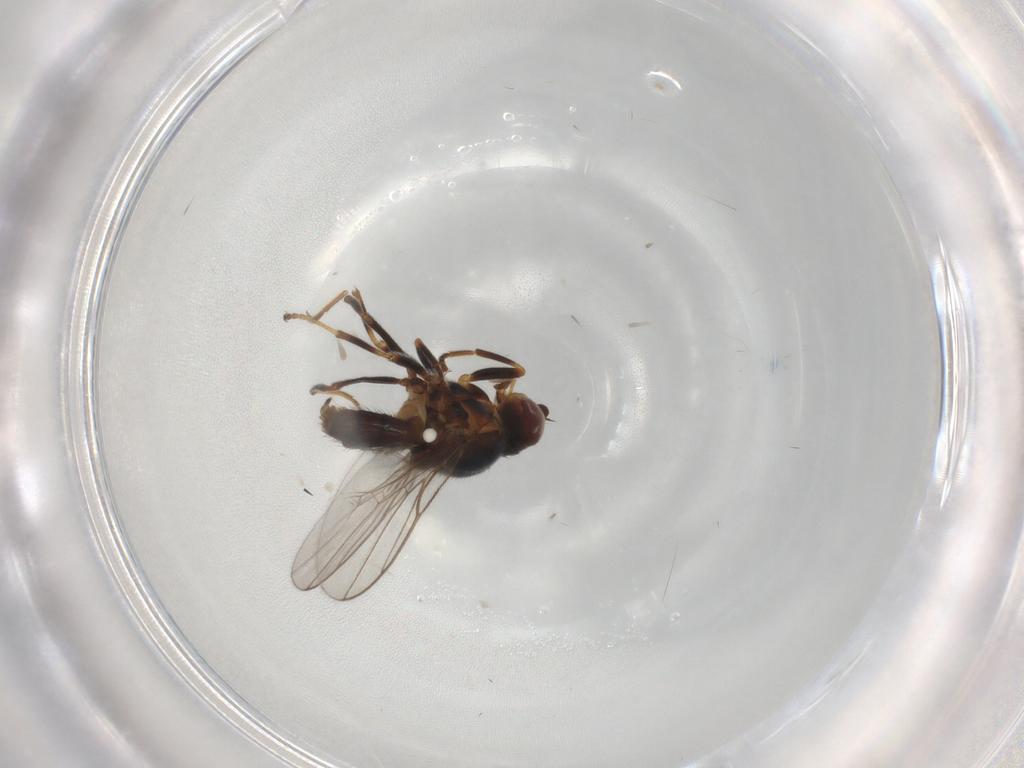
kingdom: Animalia
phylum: Arthropoda
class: Insecta
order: Diptera
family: Chloropidae
